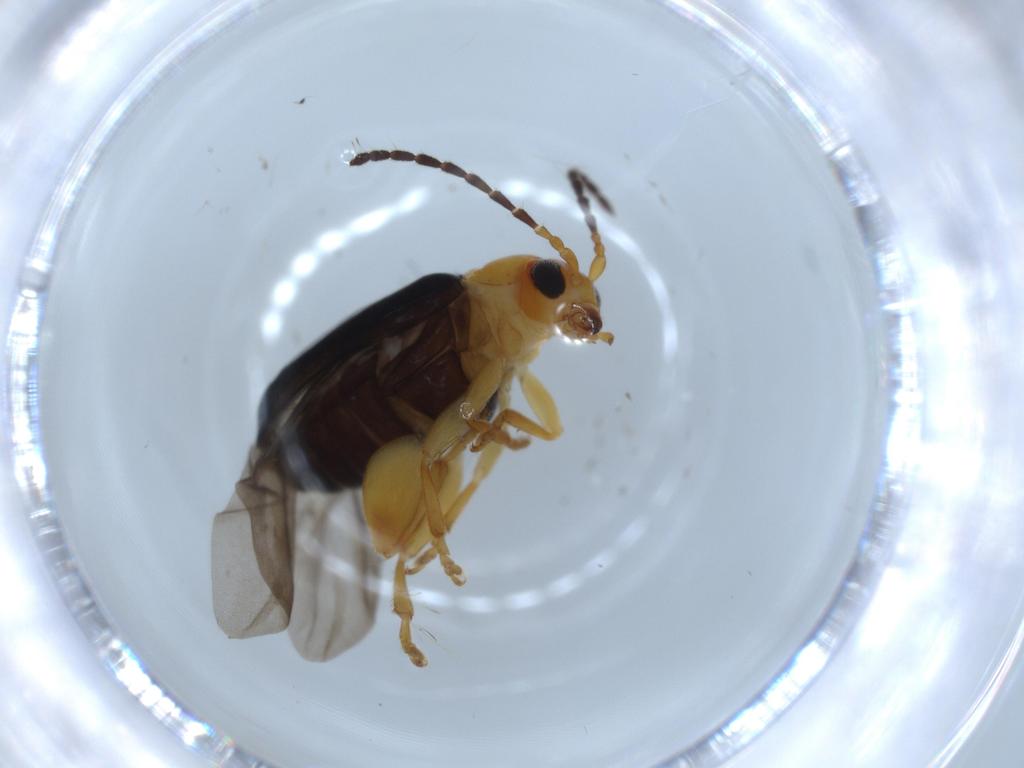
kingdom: Animalia
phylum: Arthropoda
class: Insecta
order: Coleoptera
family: Chrysomelidae
